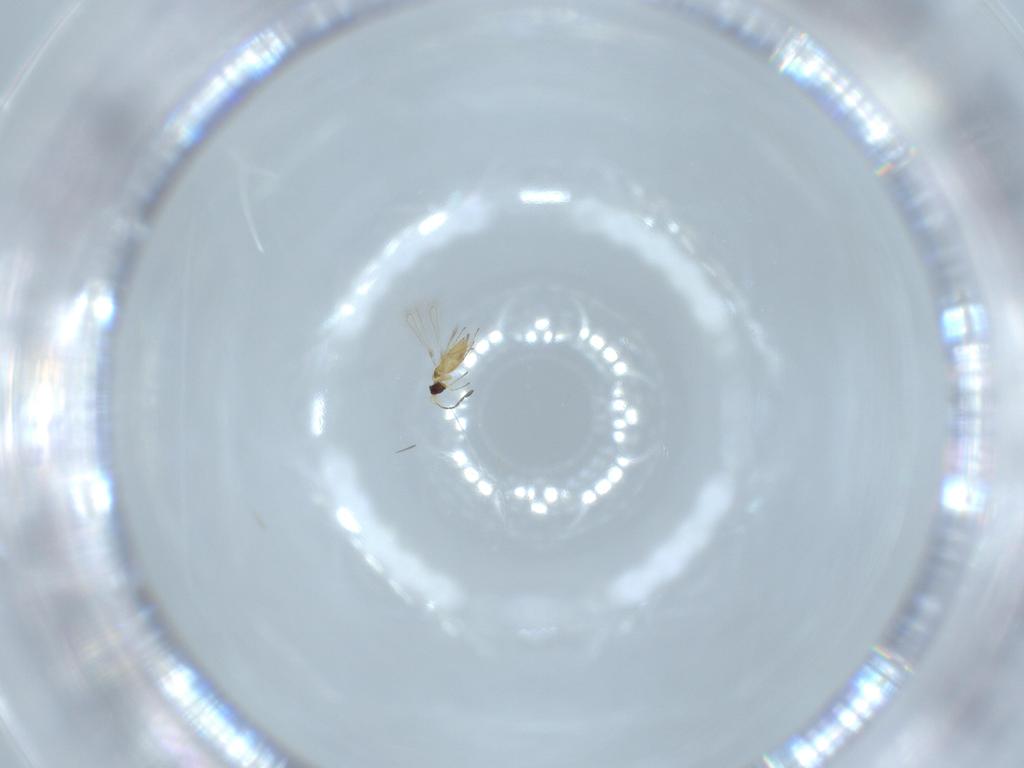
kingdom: Animalia
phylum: Arthropoda
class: Insecta
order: Hymenoptera
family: Mymaridae
